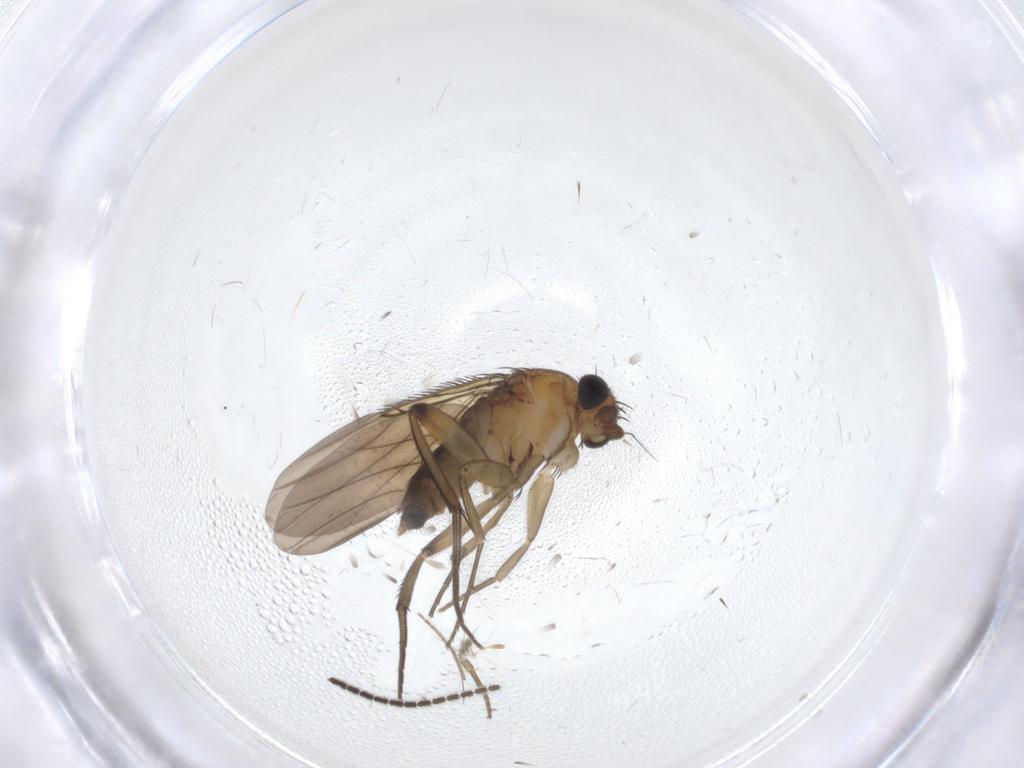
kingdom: Animalia
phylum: Arthropoda
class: Insecta
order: Diptera
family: Phoridae
